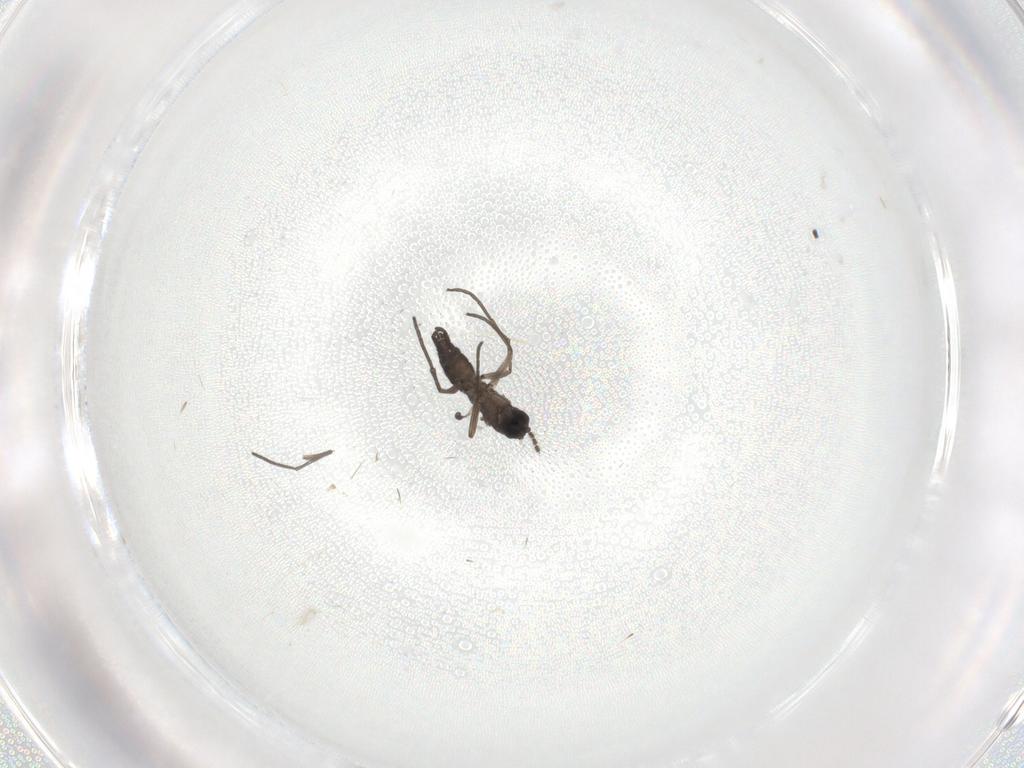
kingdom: Animalia
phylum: Arthropoda
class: Insecta
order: Diptera
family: Sciaridae
